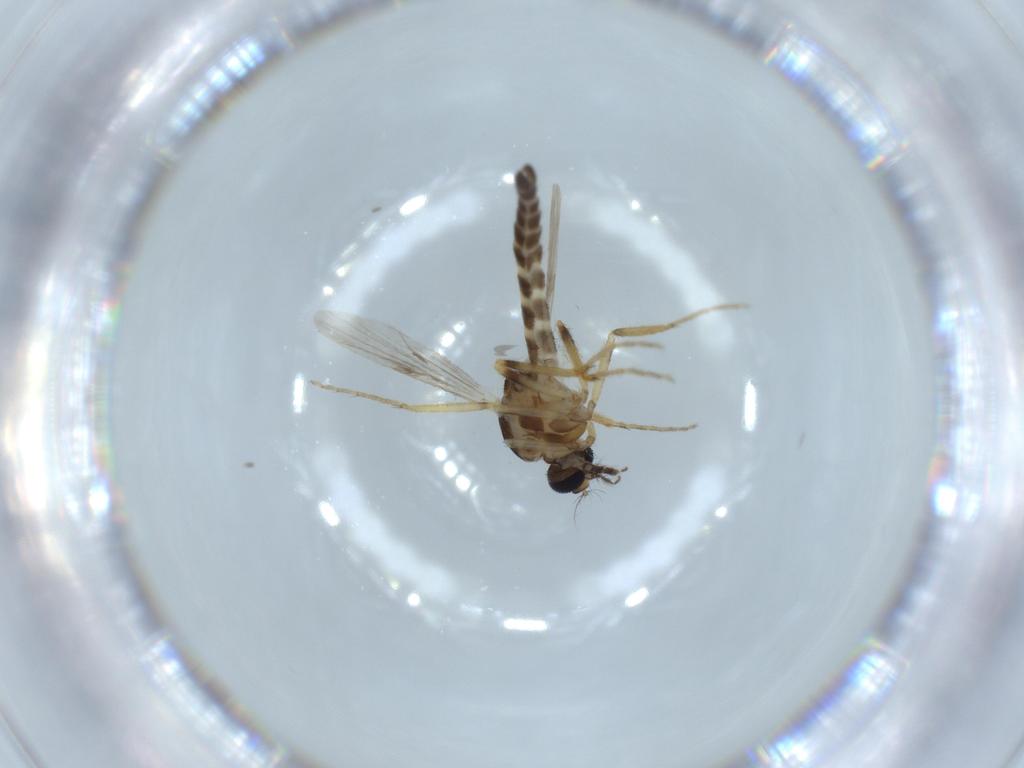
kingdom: Animalia
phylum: Arthropoda
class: Insecta
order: Diptera
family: Ceratopogonidae
